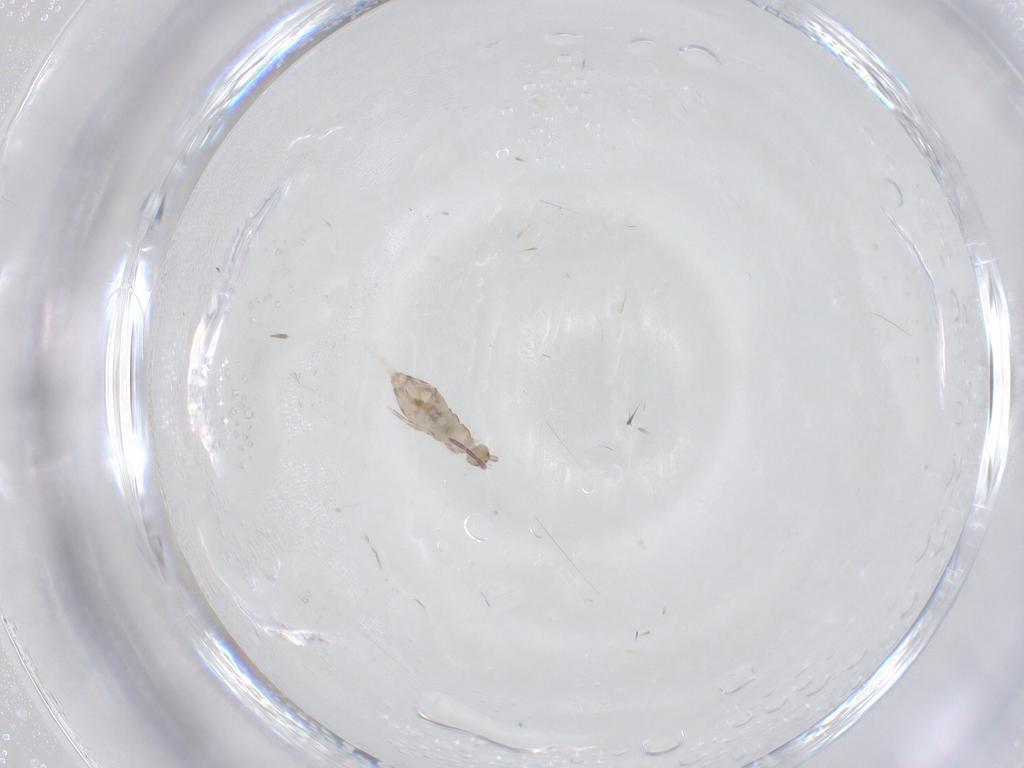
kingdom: Animalia
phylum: Arthropoda
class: Collembola
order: Entomobryomorpha
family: Entomobryidae
